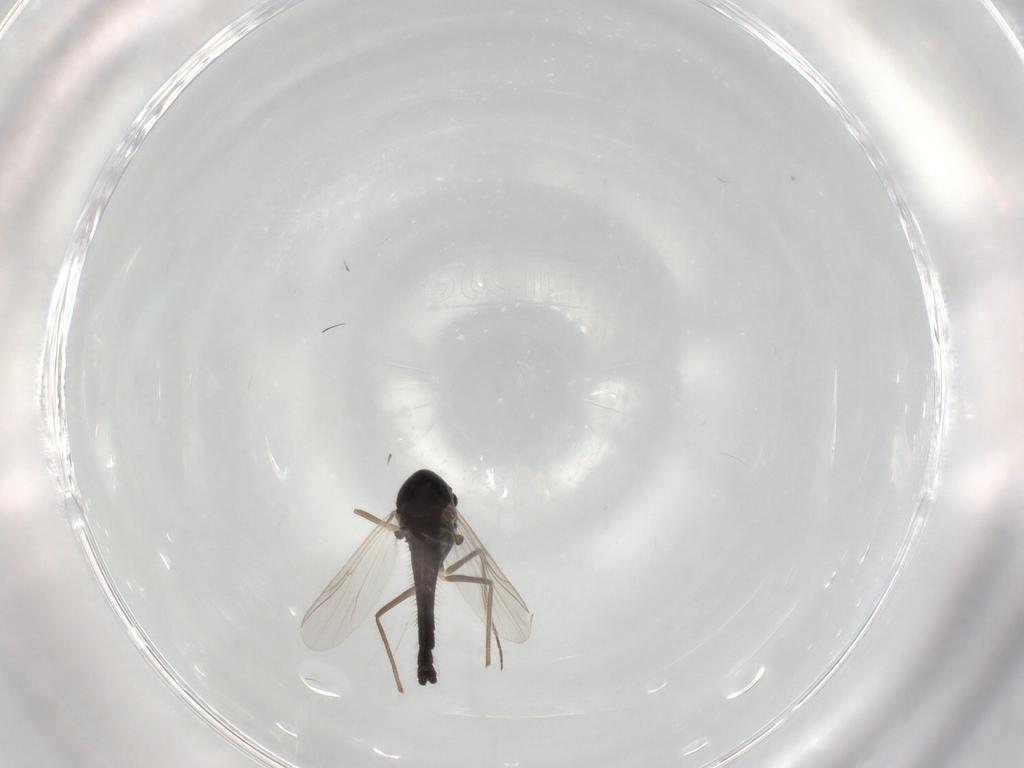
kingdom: Animalia
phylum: Arthropoda
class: Insecta
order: Diptera
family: Chironomidae
